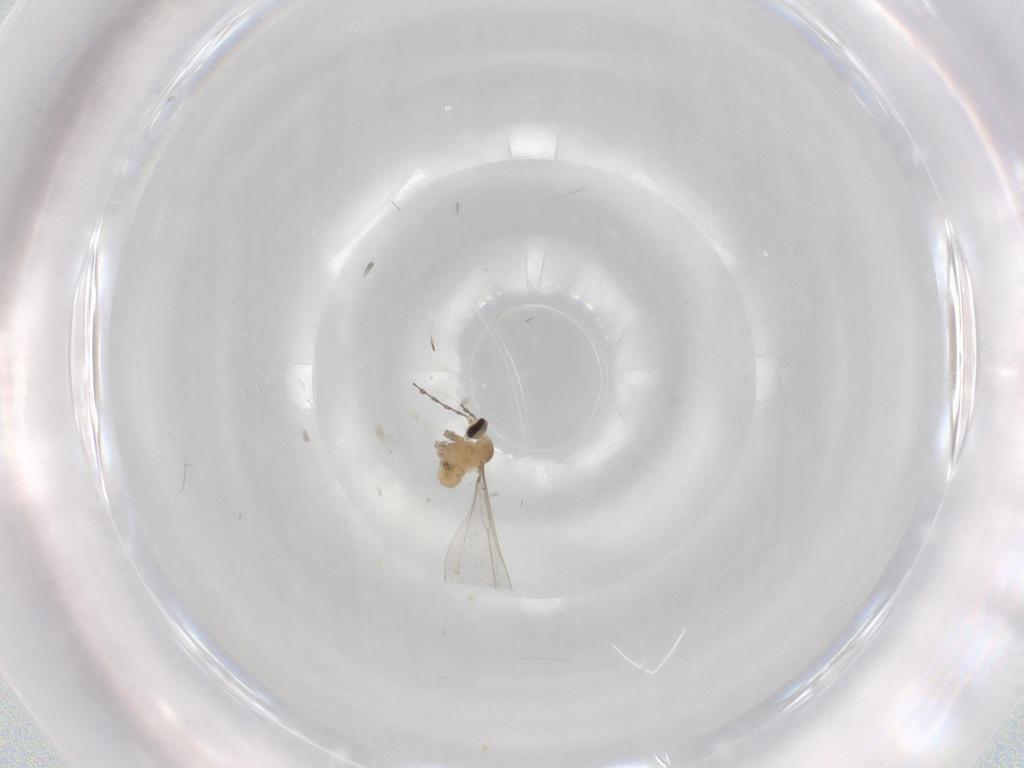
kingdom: Animalia
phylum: Arthropoda
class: Insecta
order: Diptera
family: Cecidomyiidae
